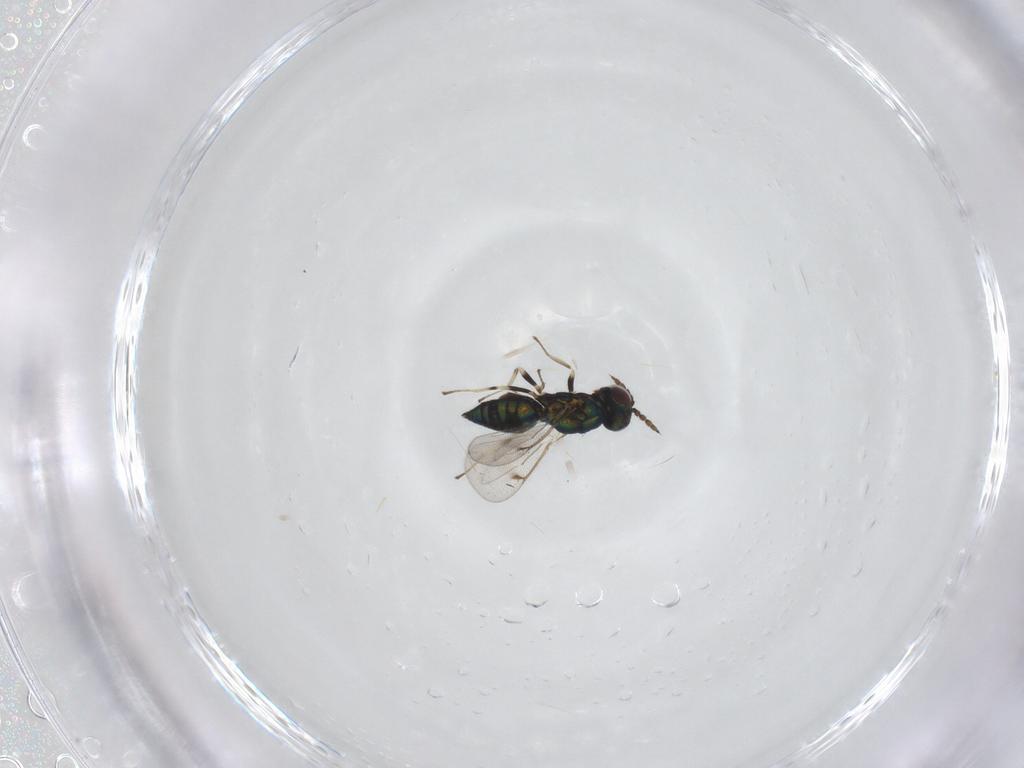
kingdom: Animalia
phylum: Arthropoda
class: Insecta
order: Hymenoptera
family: Eulophidae
